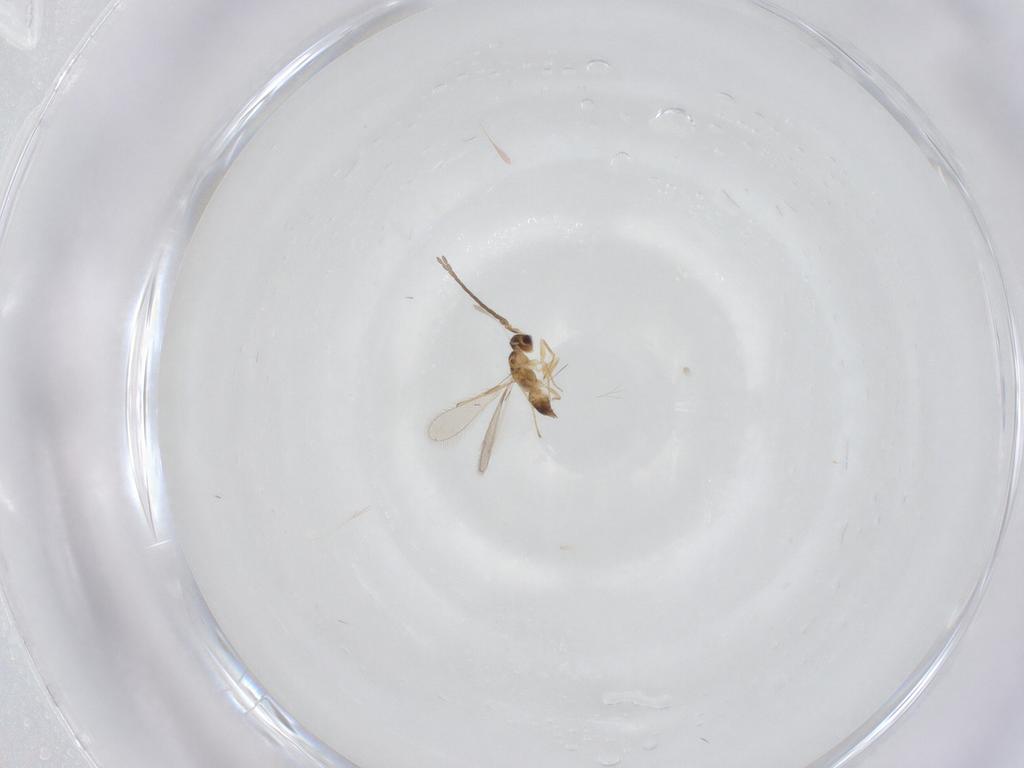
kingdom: Animalia
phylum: Arthropoda
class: Insecta
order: Hymenoptera
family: Mymaridae
